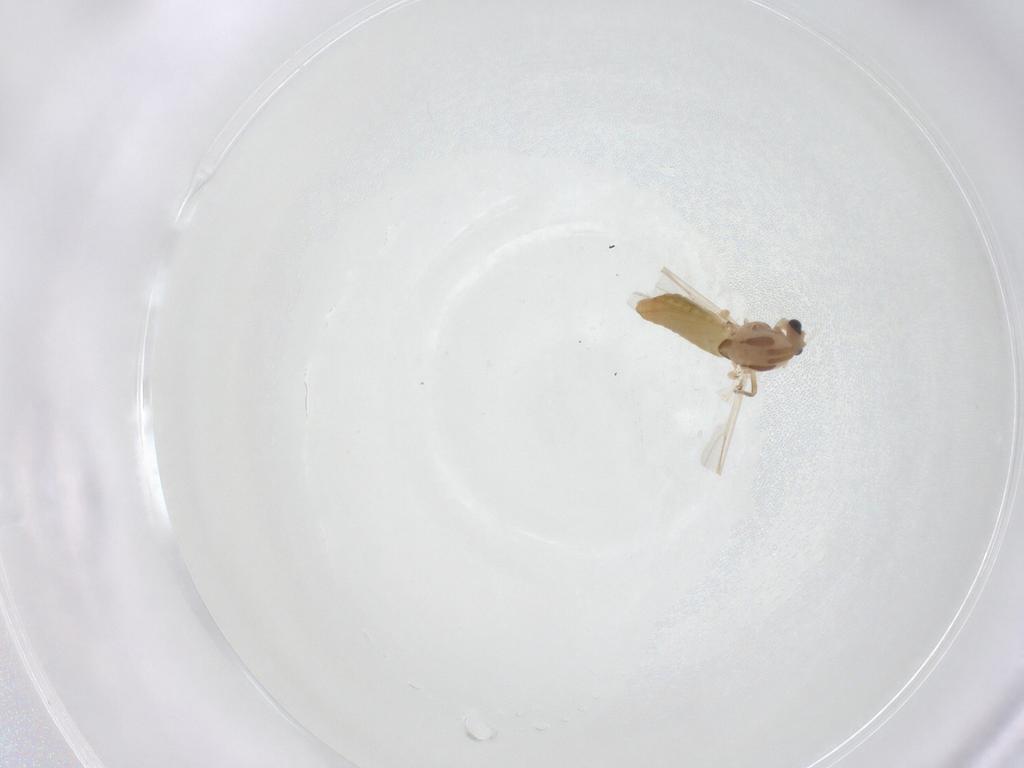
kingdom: Animalia
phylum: Arthropoda
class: Insecta
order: Diptera
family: Chironomidae
